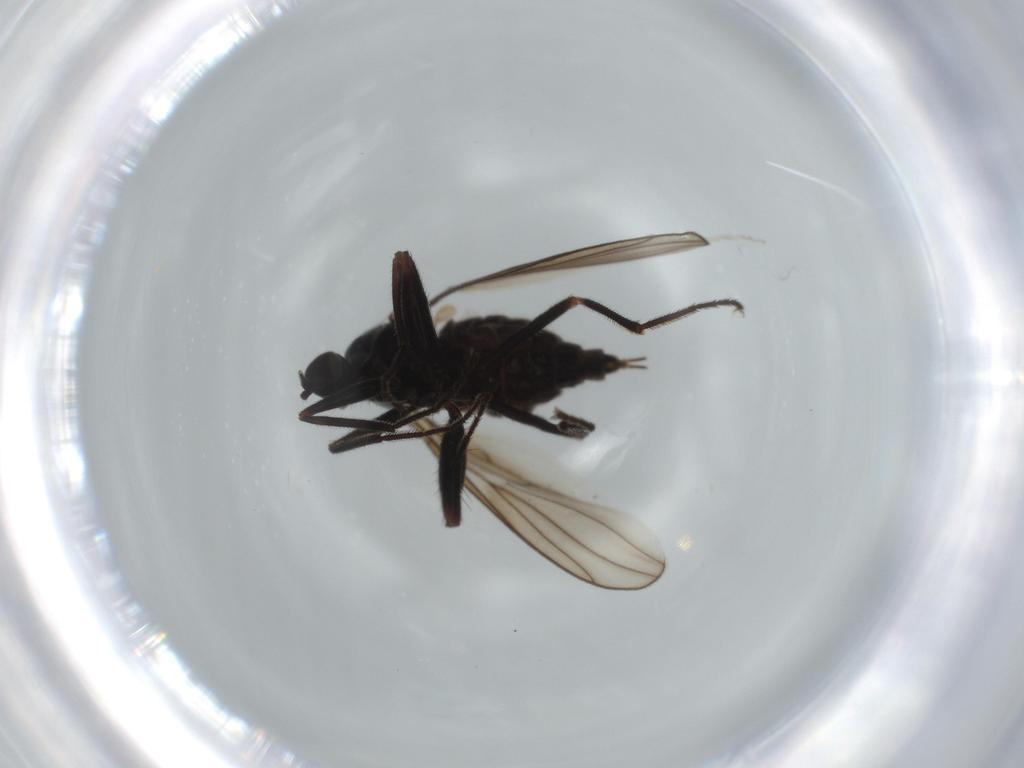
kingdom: Animalia
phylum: Arthropoda
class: Insecta
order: Diptera
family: Hybotidae
